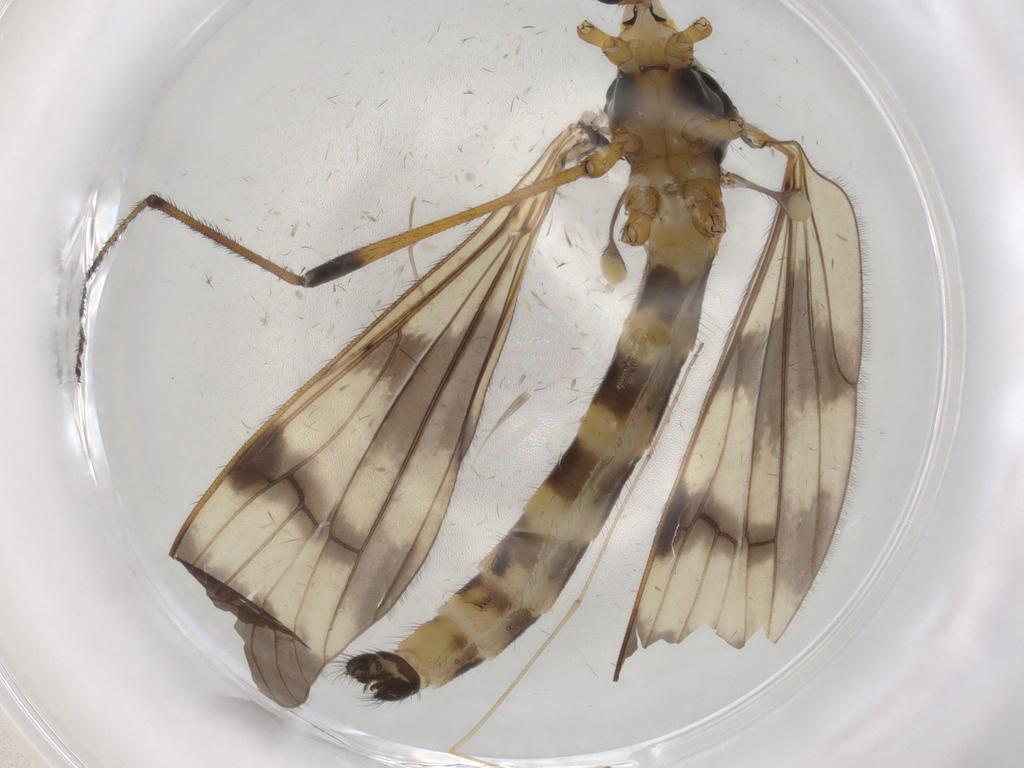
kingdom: Animalia
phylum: Arthropoda
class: Insecta
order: Diptera
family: Limoniidae
